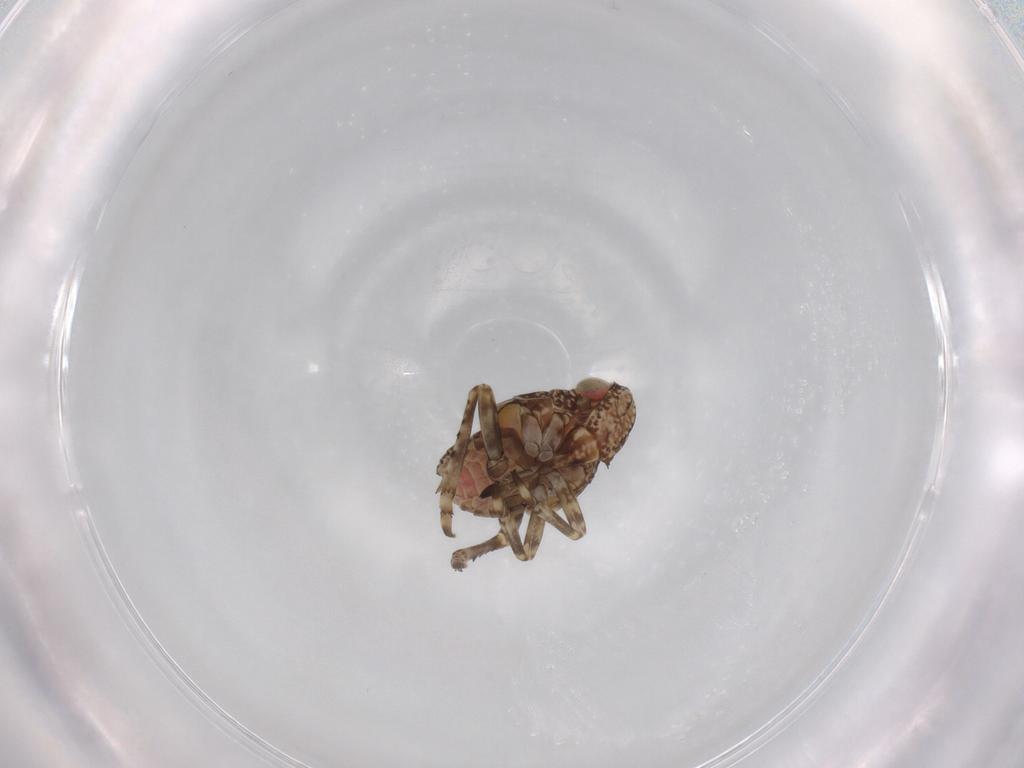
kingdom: Animalia
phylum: Arthropoda
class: Insecta
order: Hemiptera
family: Tropiduchidae
